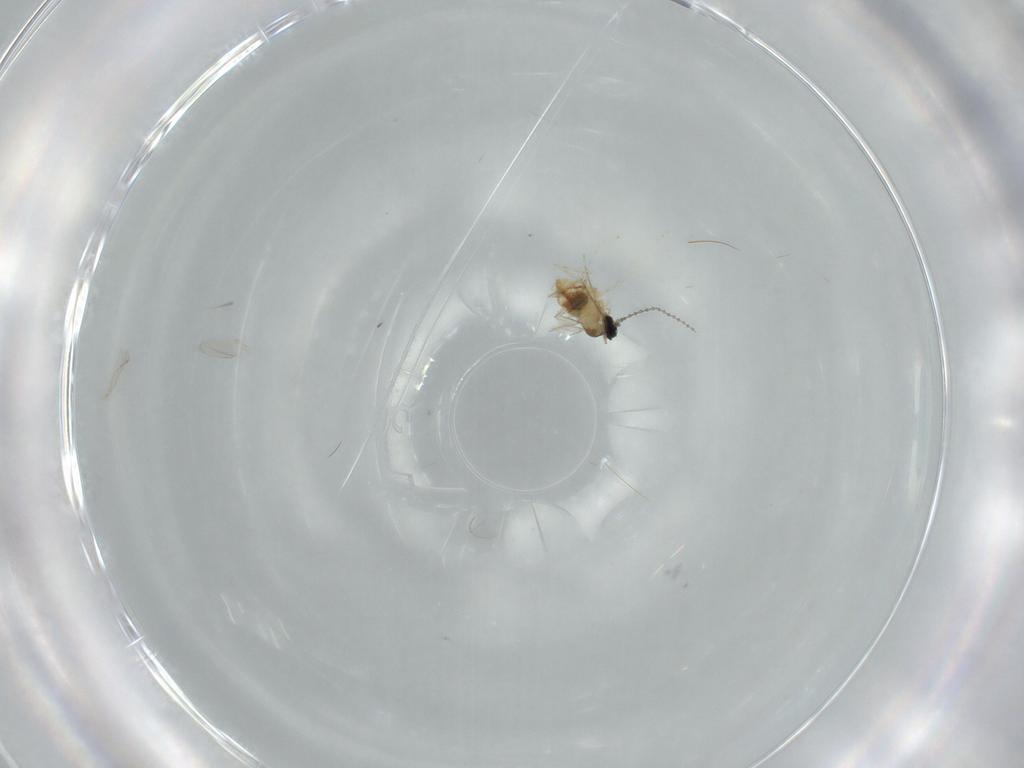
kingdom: Animalia
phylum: Arthropoda
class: Insecta
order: Diptera
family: Cecidomyiidae
